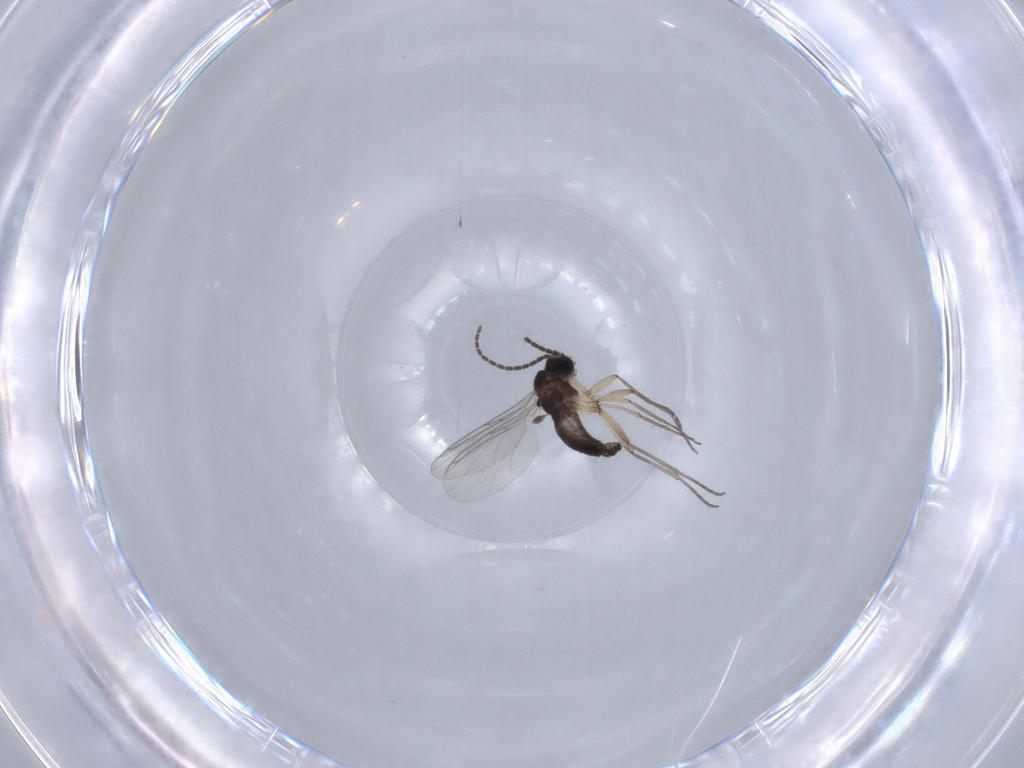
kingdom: Animalia
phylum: Arthropoda
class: Insecta
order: Diptera
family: Sciaridae
